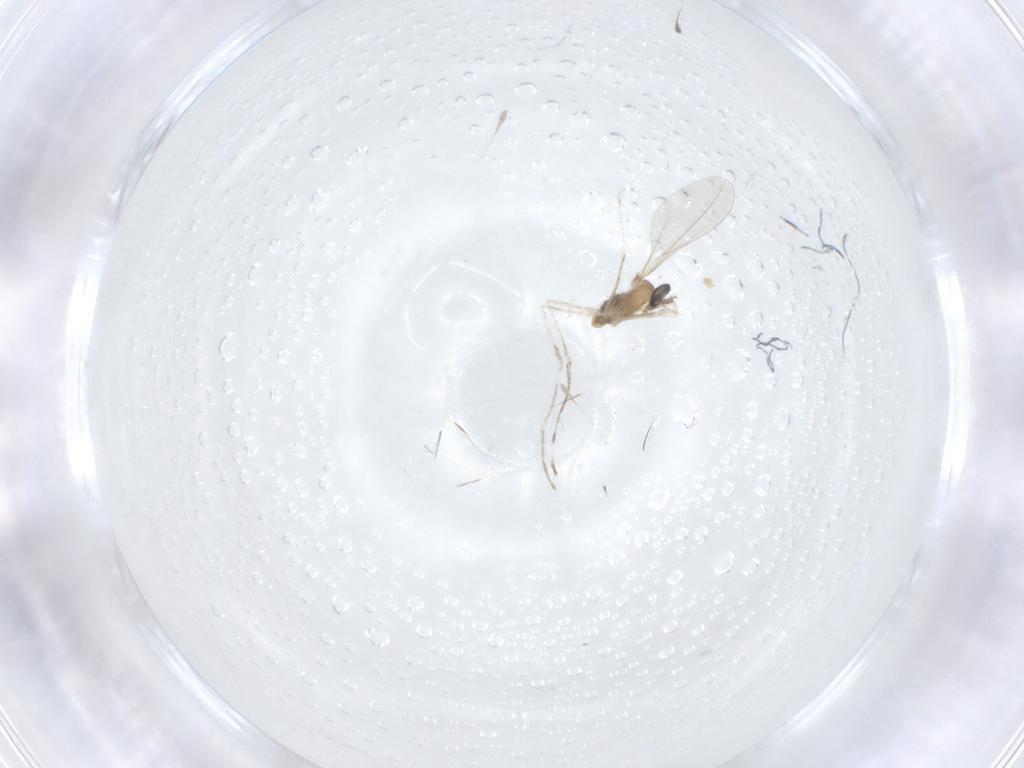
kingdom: Animalia
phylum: Arthropoda
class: Insecta
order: Diptera
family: Cecidomyiidae
